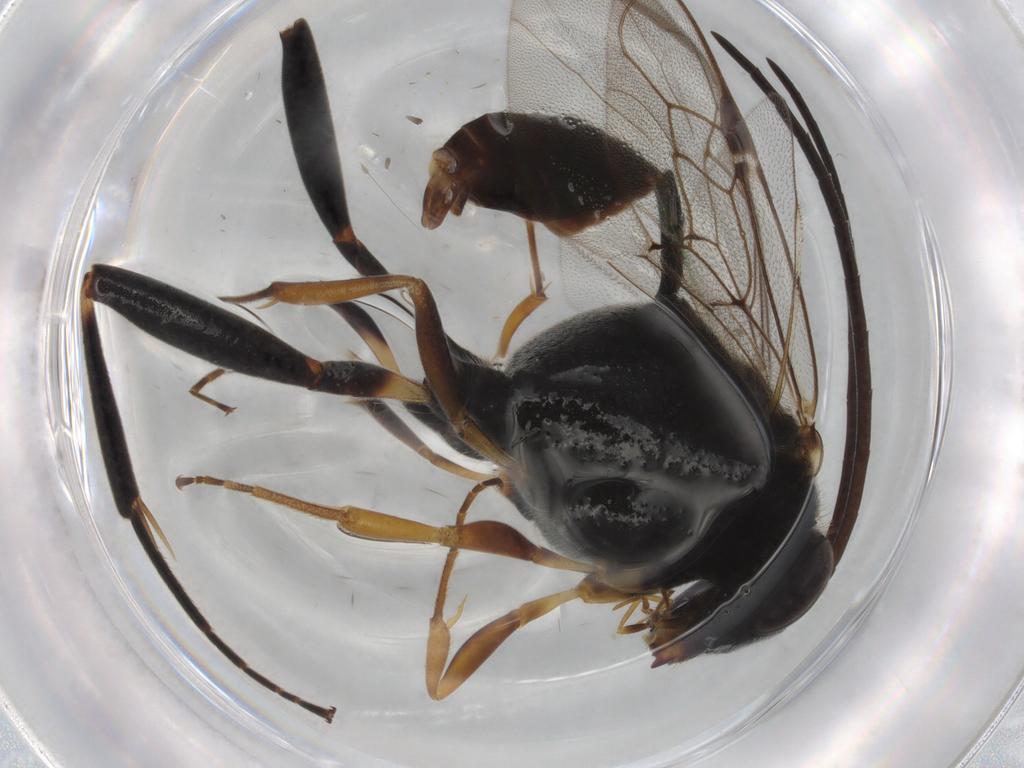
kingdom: Animalia
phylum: Arthropoda
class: Insecta
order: Hymenoptera
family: Evaniidae
